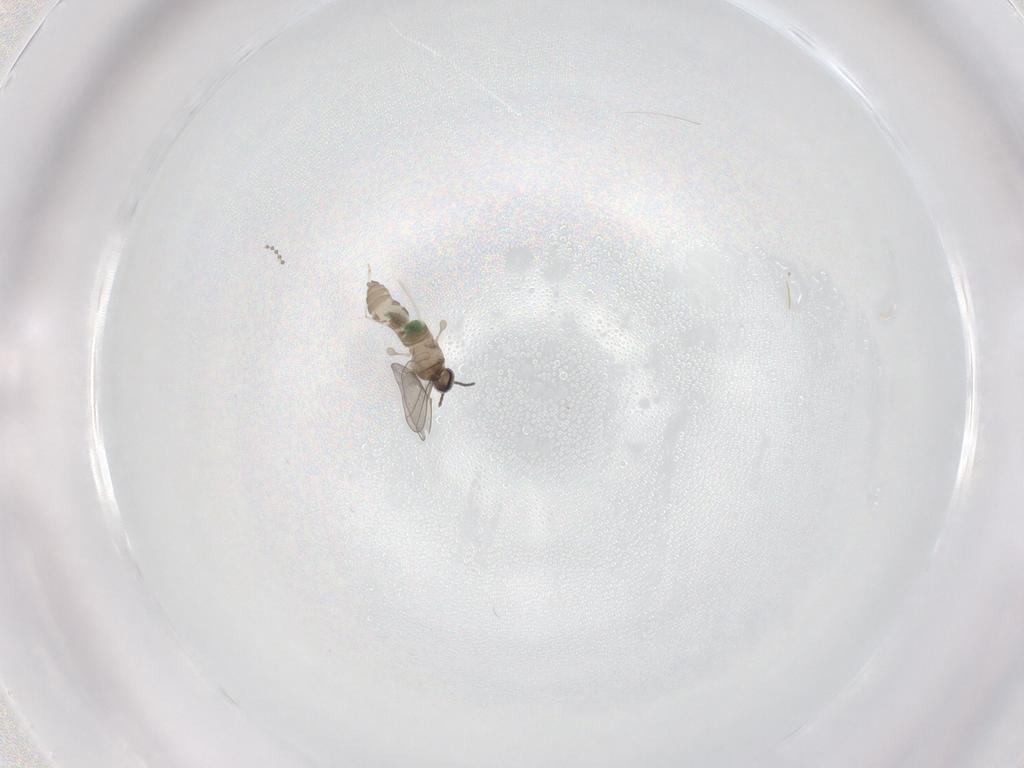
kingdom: Animalia
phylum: Arthropoda
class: Insecta
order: Diptera
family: Cecidomyiidae
